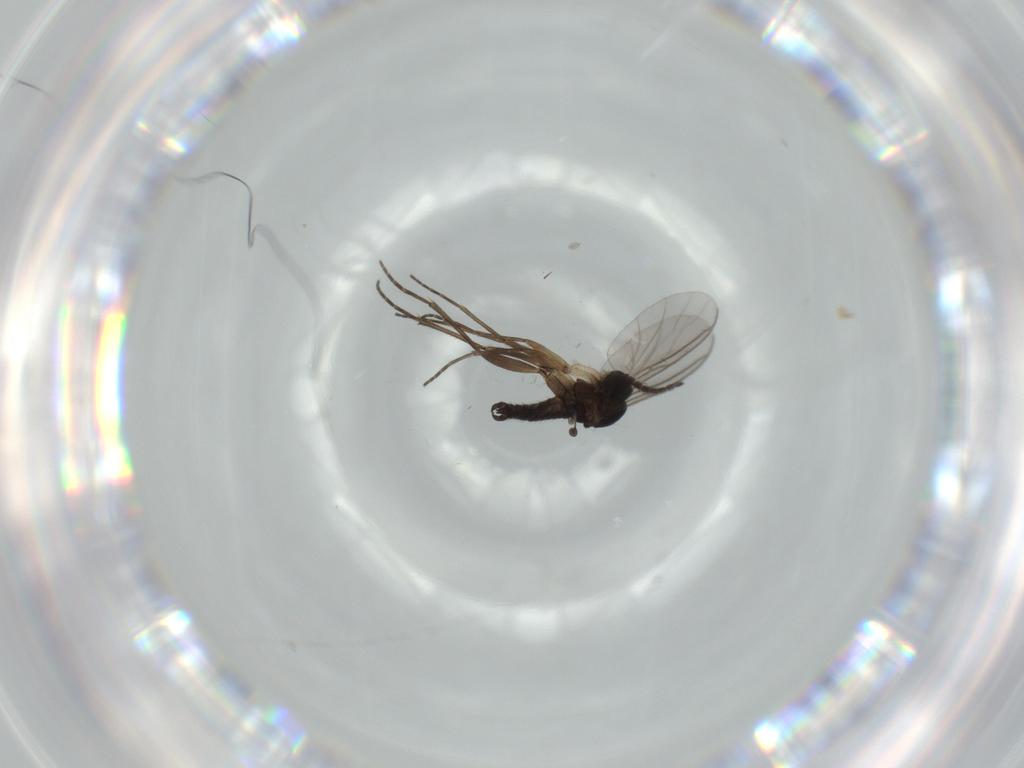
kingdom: Animalia
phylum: Arthropoda
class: Insecta
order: Diptera
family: Sciaridae
